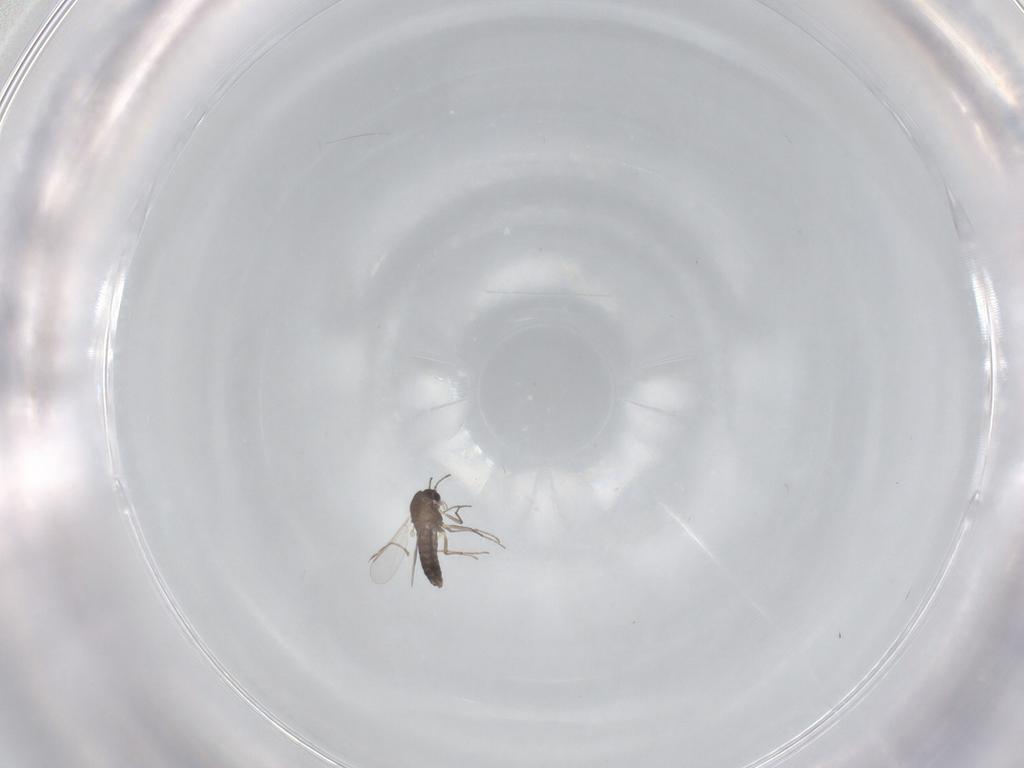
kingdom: Animalia
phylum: Arthropoda
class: Insecta
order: Diptera
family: Cecidomyiidae
